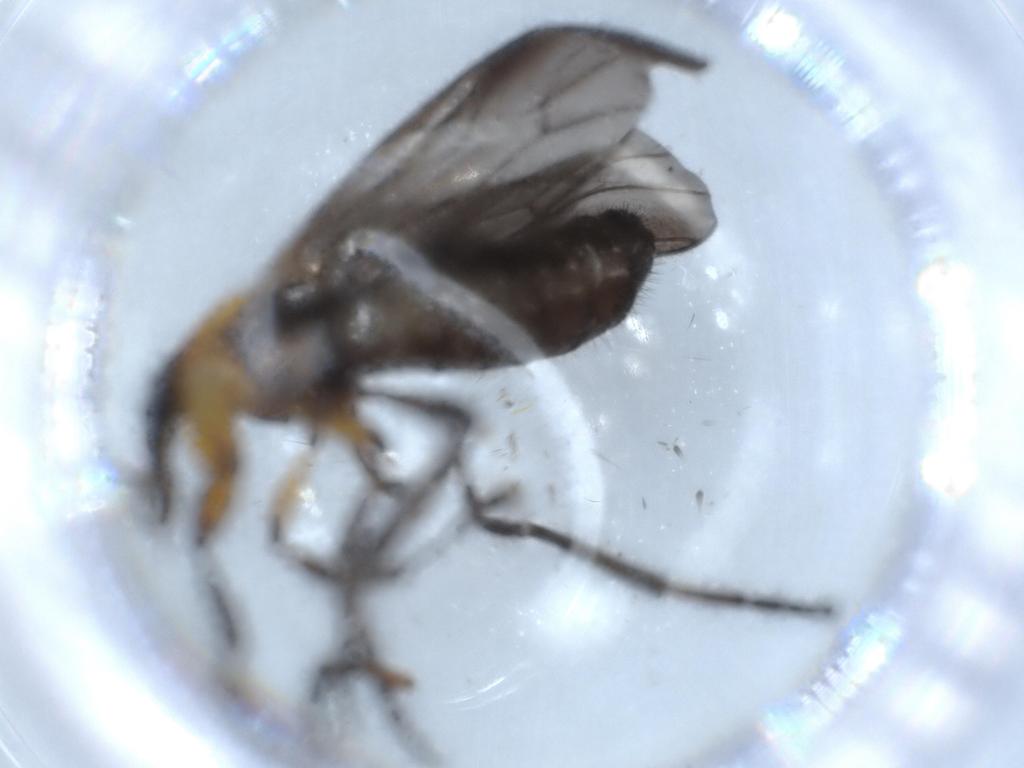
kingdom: Animalia
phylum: Arthropoda
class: Insecta
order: Diptera
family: Bibionidae
